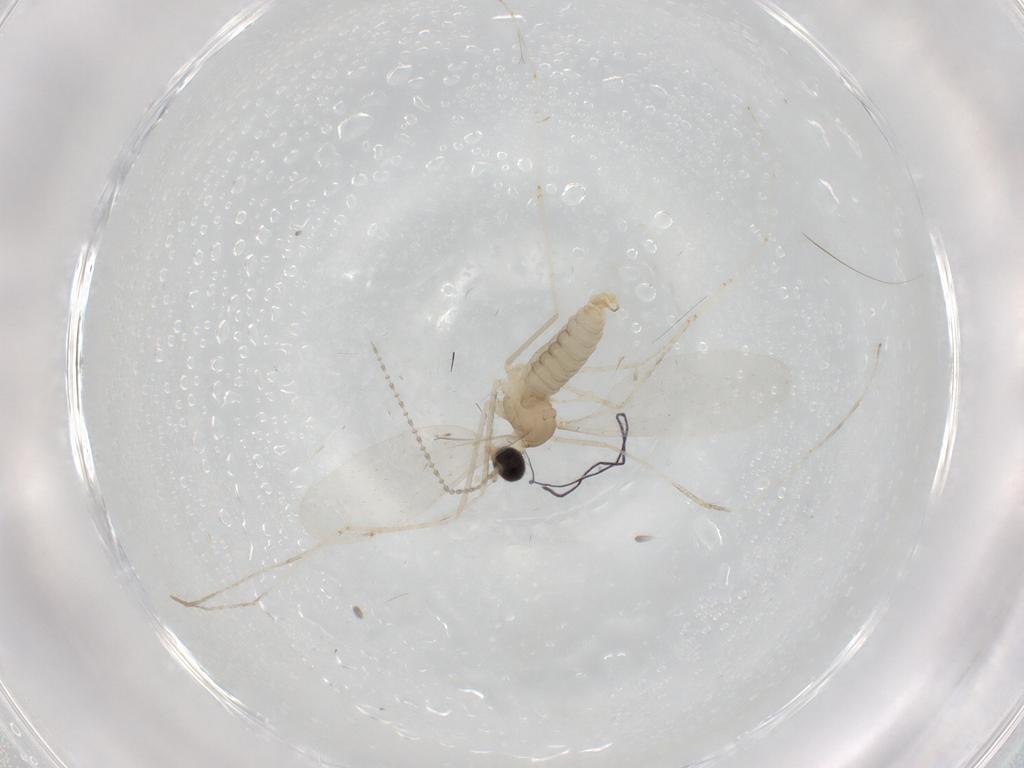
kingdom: Animalia
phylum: Arthropoda
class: Insecta
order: Diptera
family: Cecidomyiidae
